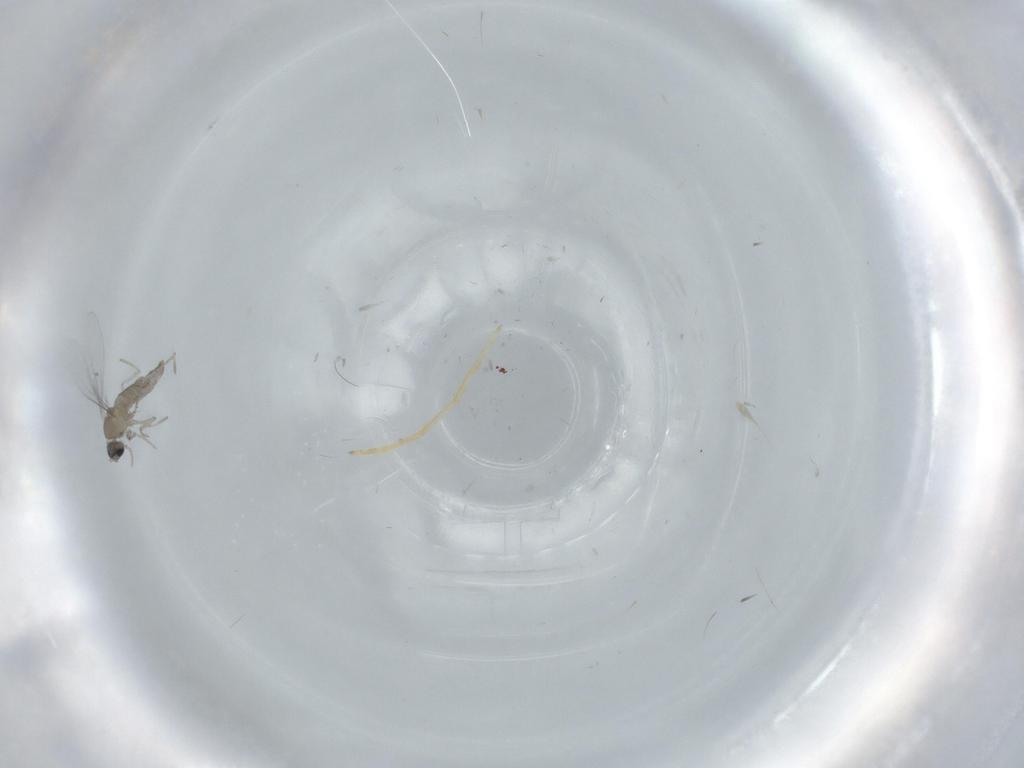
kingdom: Animalia
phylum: Arthropoda
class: Insecta
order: Diptera
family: Cecidomyiidae
